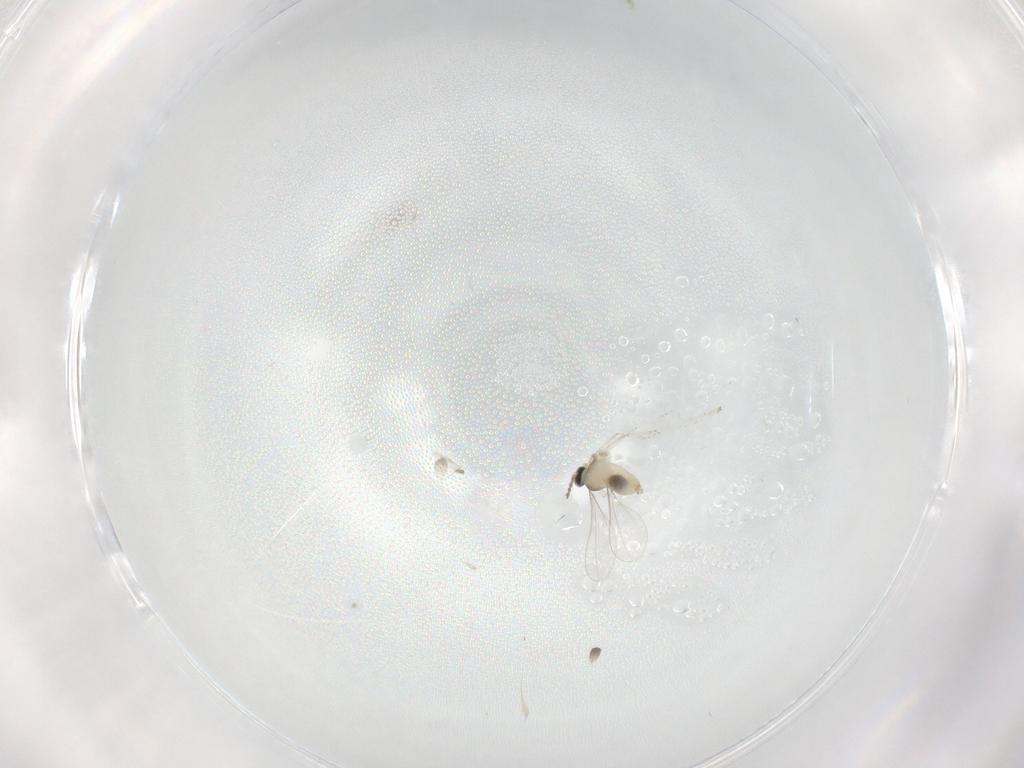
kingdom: Animalia
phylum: Arthropoda
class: Insecta
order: Diptera
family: Cecidomyiidae
